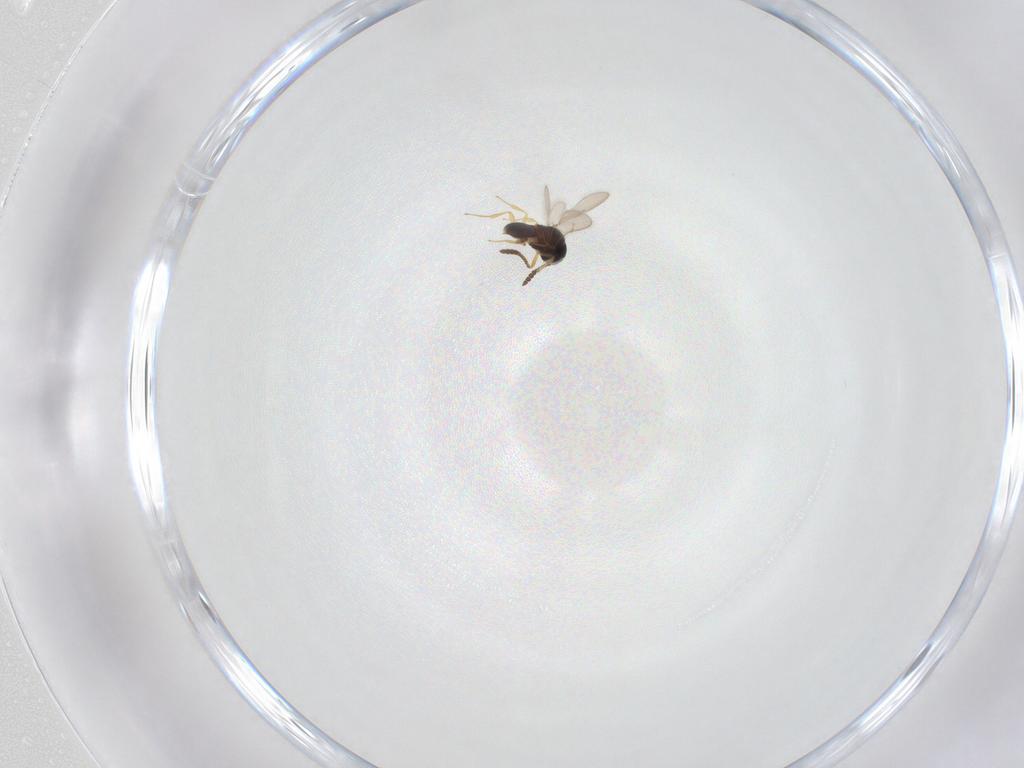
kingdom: Animalia
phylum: Arthropoda
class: Insecta
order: Hymenoptera
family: Scelionidae
